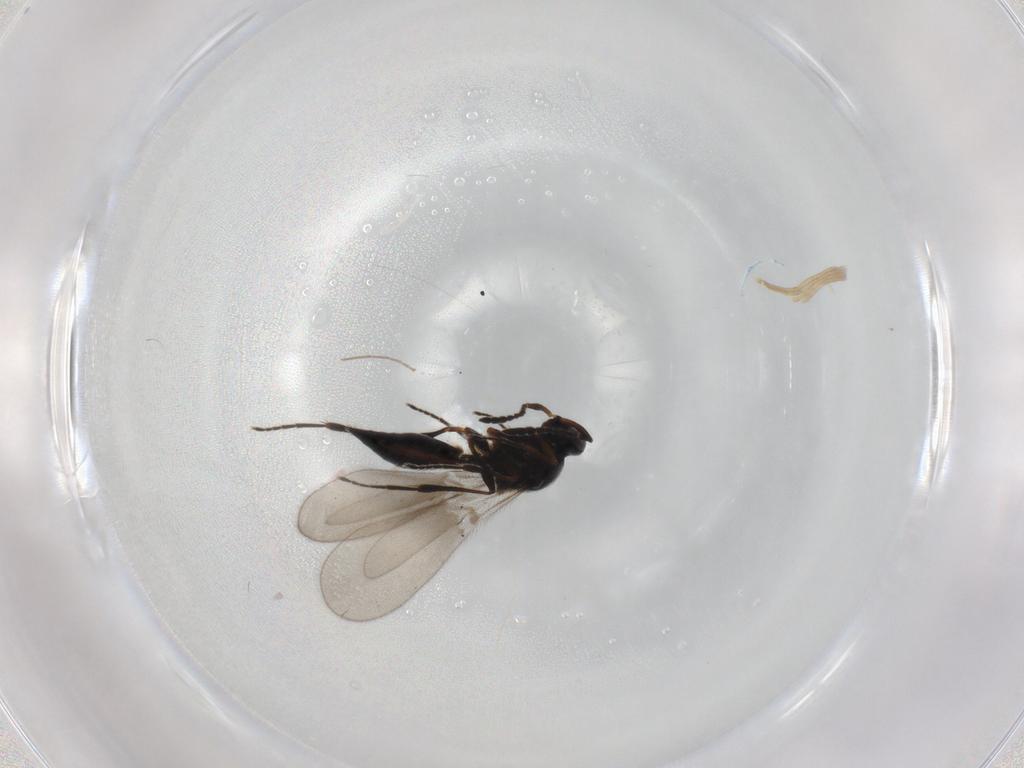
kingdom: Animalia
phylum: Arthropoda
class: Insecta
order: Hymenoptera
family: Platygastridae
